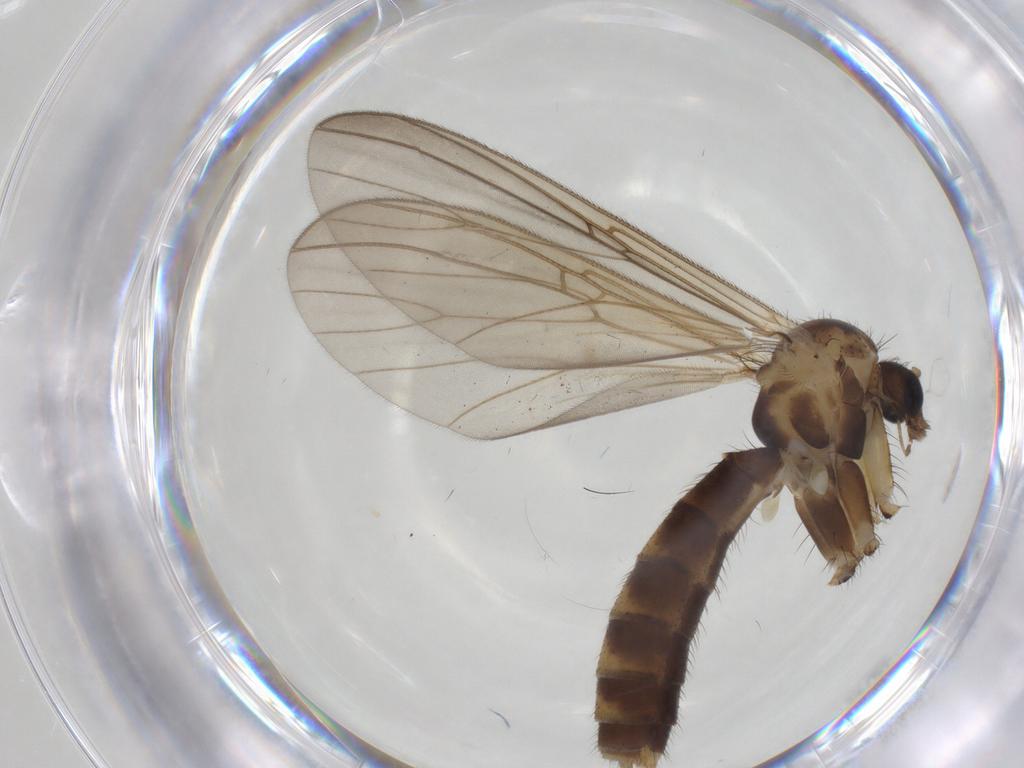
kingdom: Animalia
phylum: Arthropoda
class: Insecta
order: Diptera
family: Mycetophilidae
